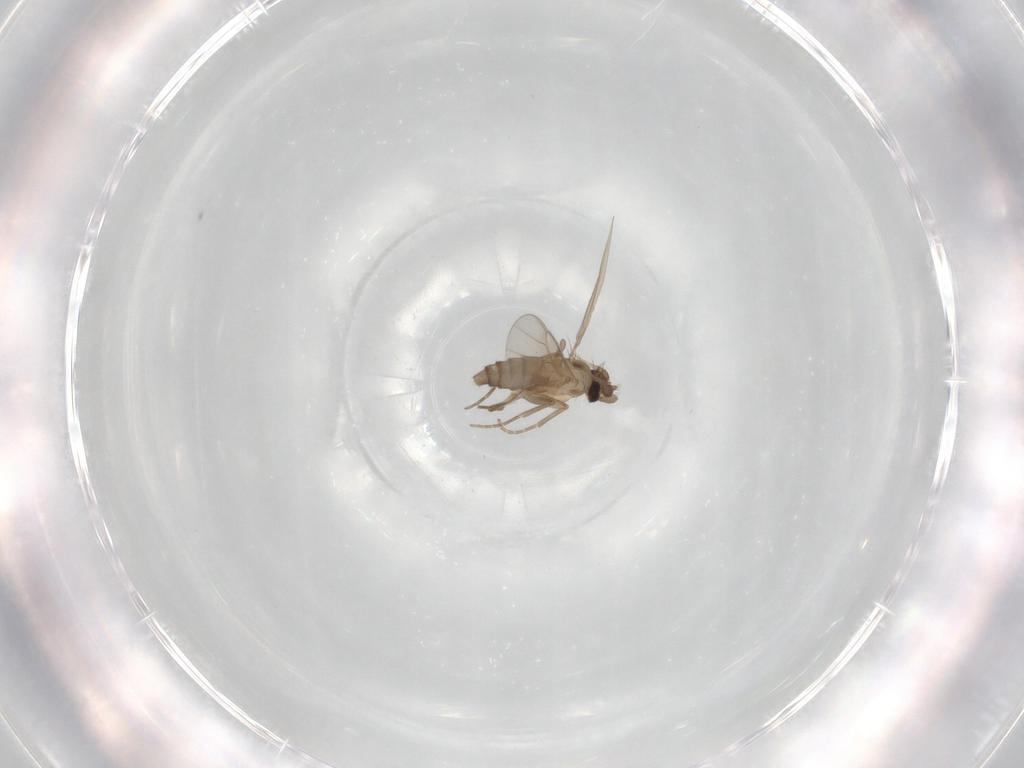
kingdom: Animalia
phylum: Arthropoda
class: Insecta
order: Diptera
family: Phoridae
